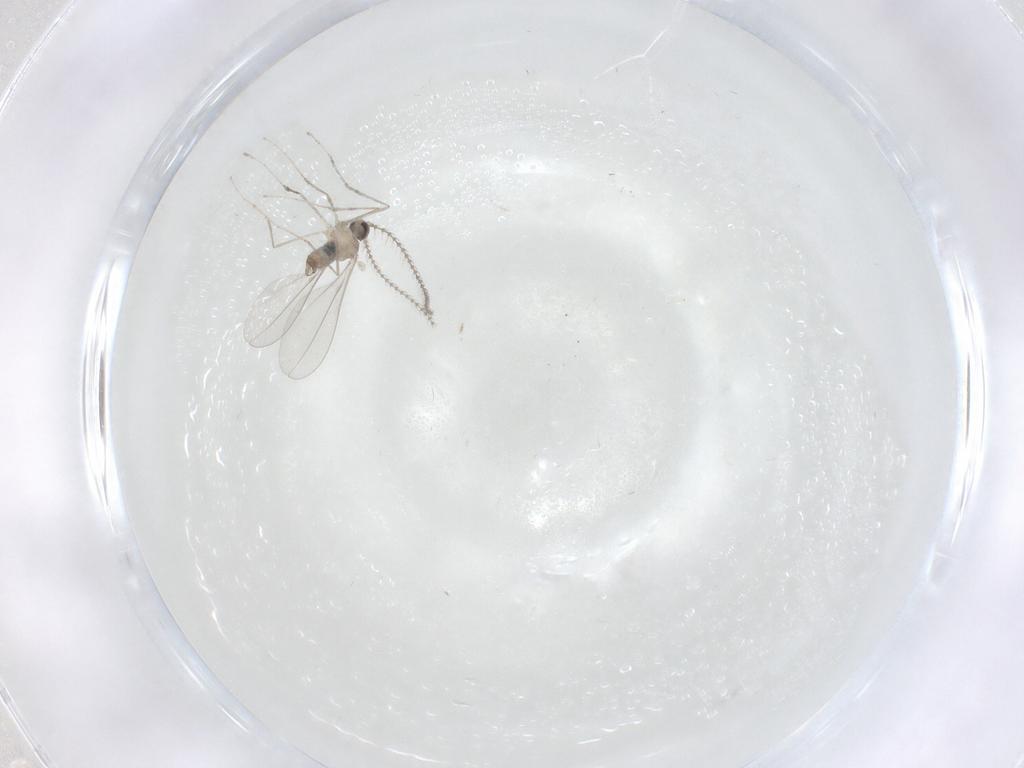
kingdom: Animalia
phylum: Arthropoda
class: Insecta
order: Diptera
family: Cecidomyiidae
